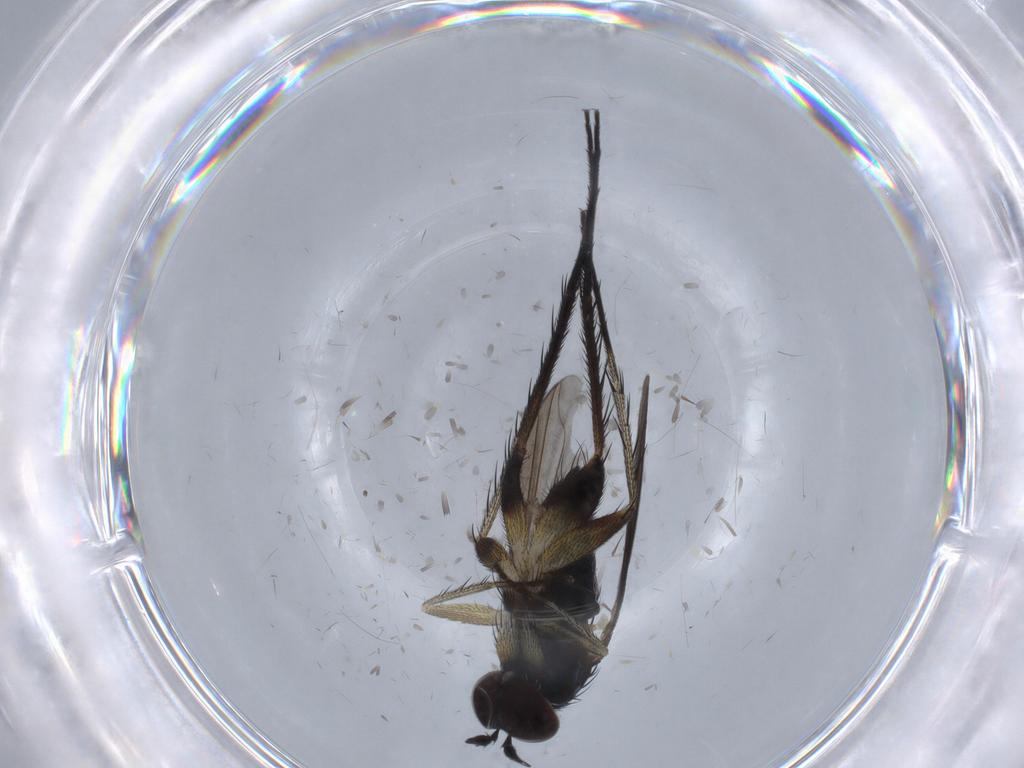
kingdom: Animalia
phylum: Arthropoda
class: Insecta
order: Diptera
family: Dolichopodidae
